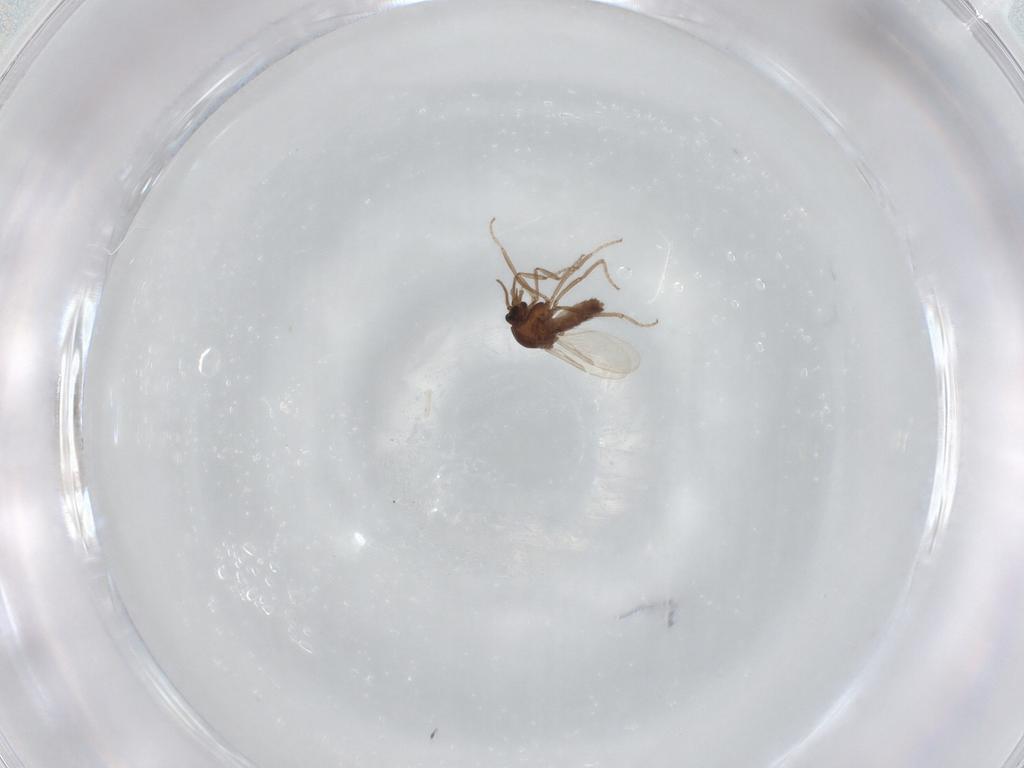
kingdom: Animalia
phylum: Arthropoda
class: Insecta
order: Diptera
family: Ceratopogonidae
